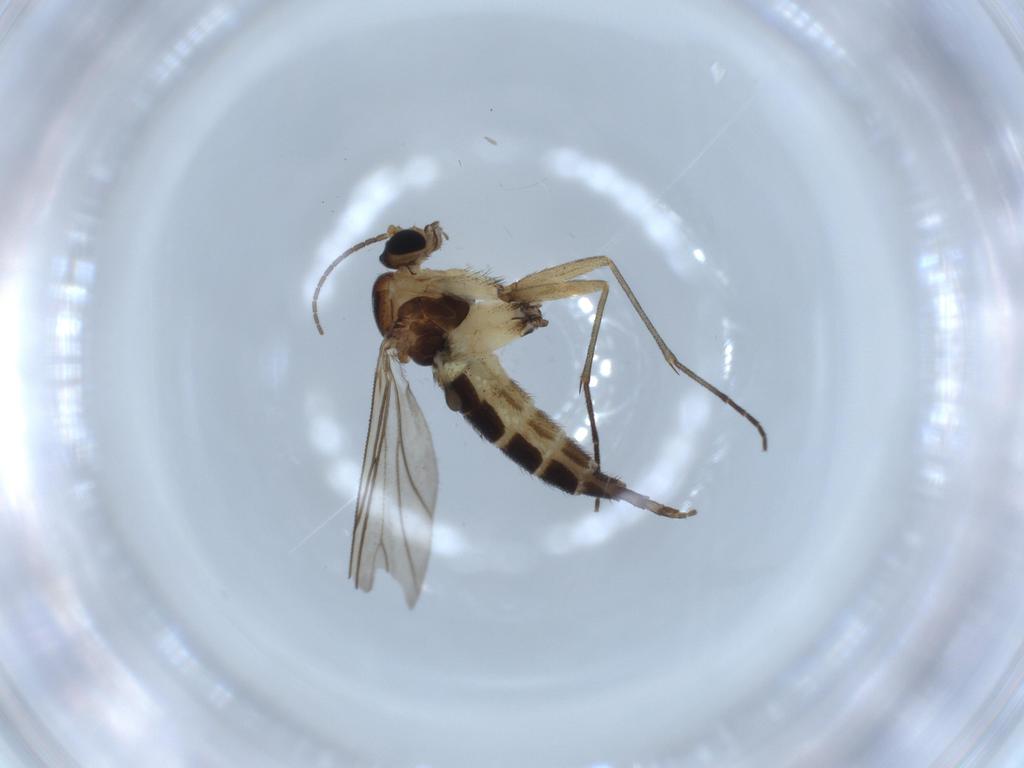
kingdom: Animalia
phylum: Arthropoda
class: Insecta
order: Diptera
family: Sciaridae
